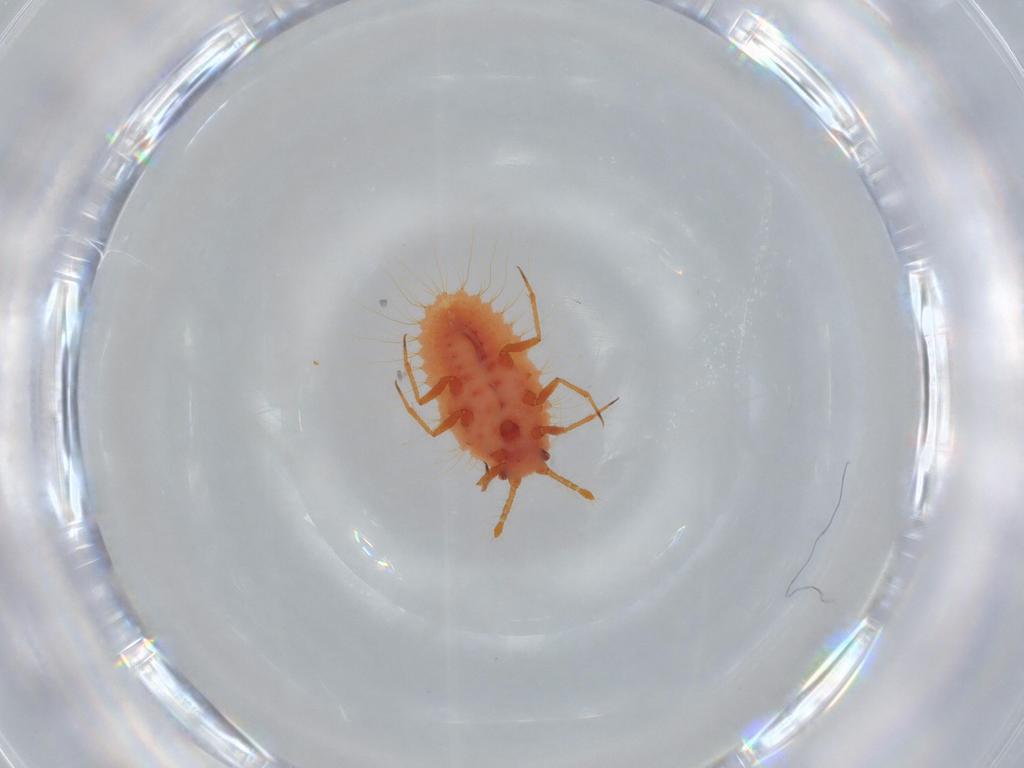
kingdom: Animalia
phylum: Arthropoda
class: Insecta
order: Hemiptera
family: Coccoidea_incertae_sedis
